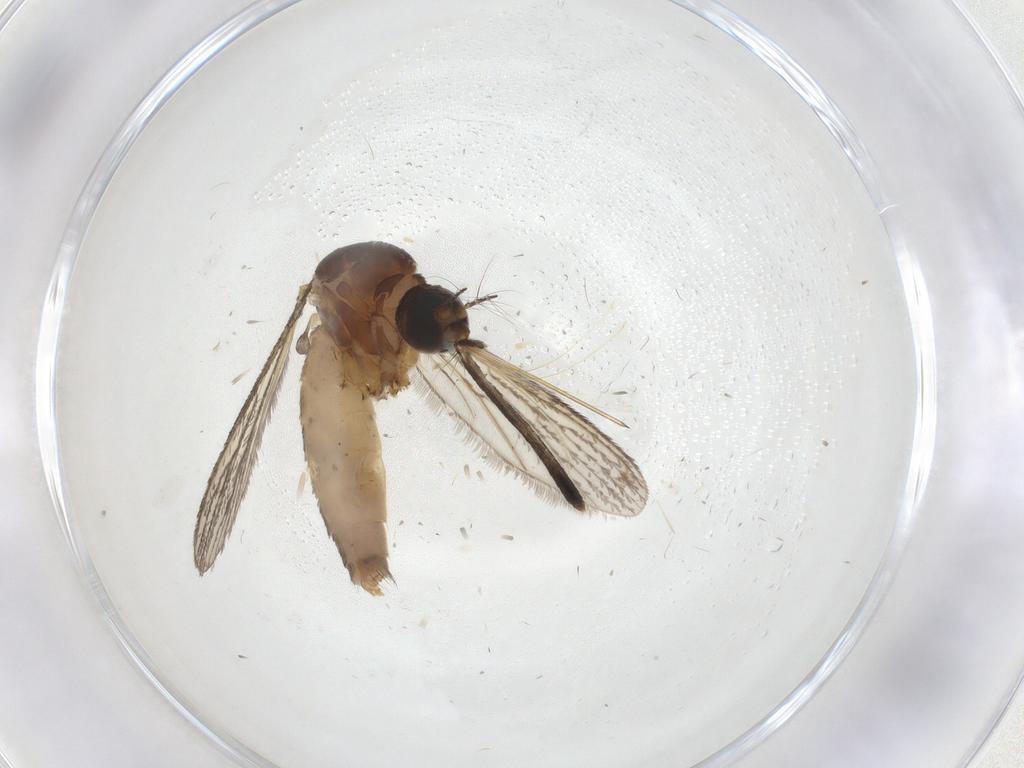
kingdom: Animalia
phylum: Arthropoda
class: Insecta
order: Diptera
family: Culicidae
